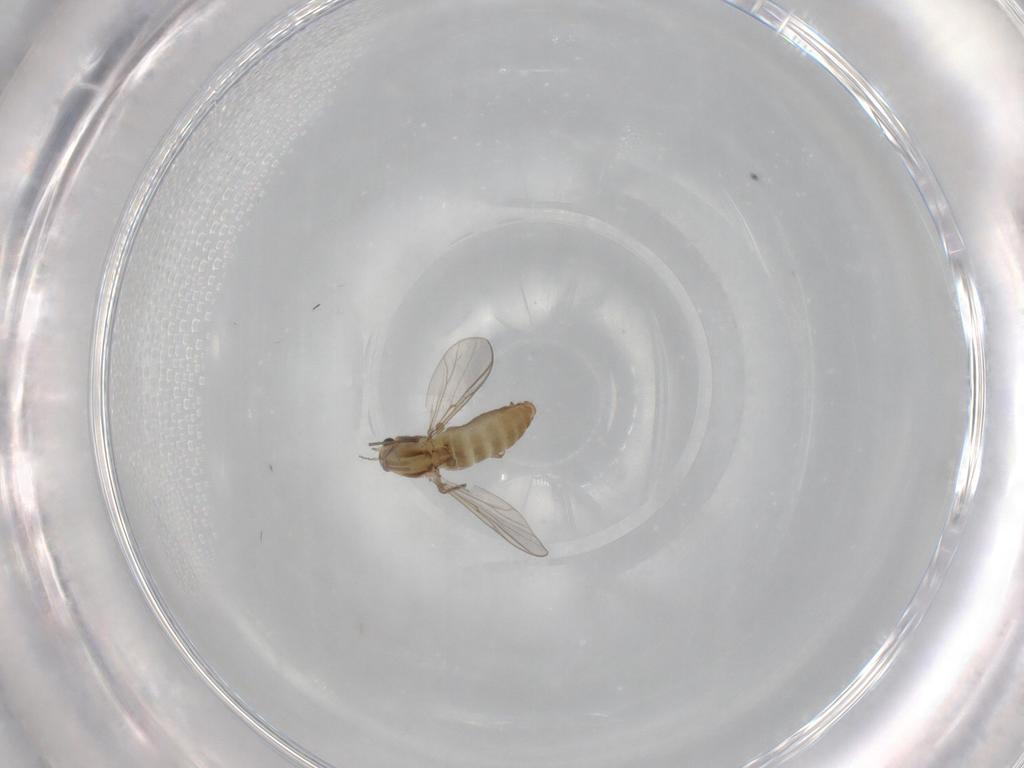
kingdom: Animalia
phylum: Arthropoda
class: Insecta
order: Diptera
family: Chironomidae
